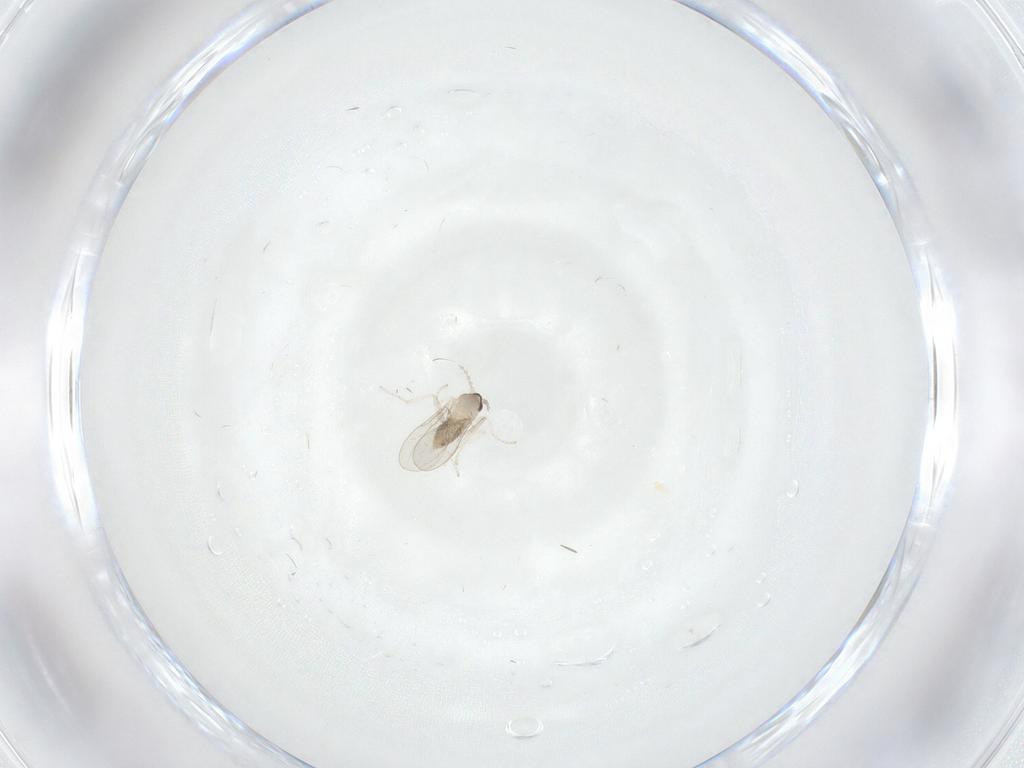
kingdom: Animalia
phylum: Arthropoda
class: Insecta
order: Diptera
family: Cecidomyiidae
